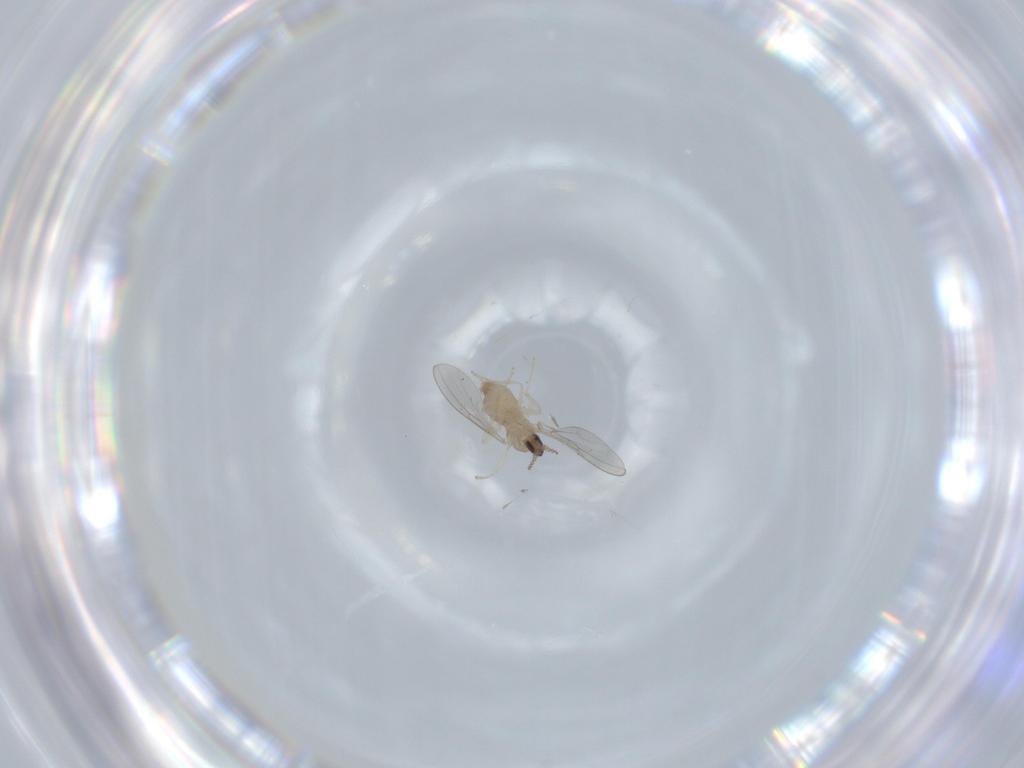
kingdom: Animalia
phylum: Arthropoda
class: Insecta
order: Diptera
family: Cecidomyiidae
